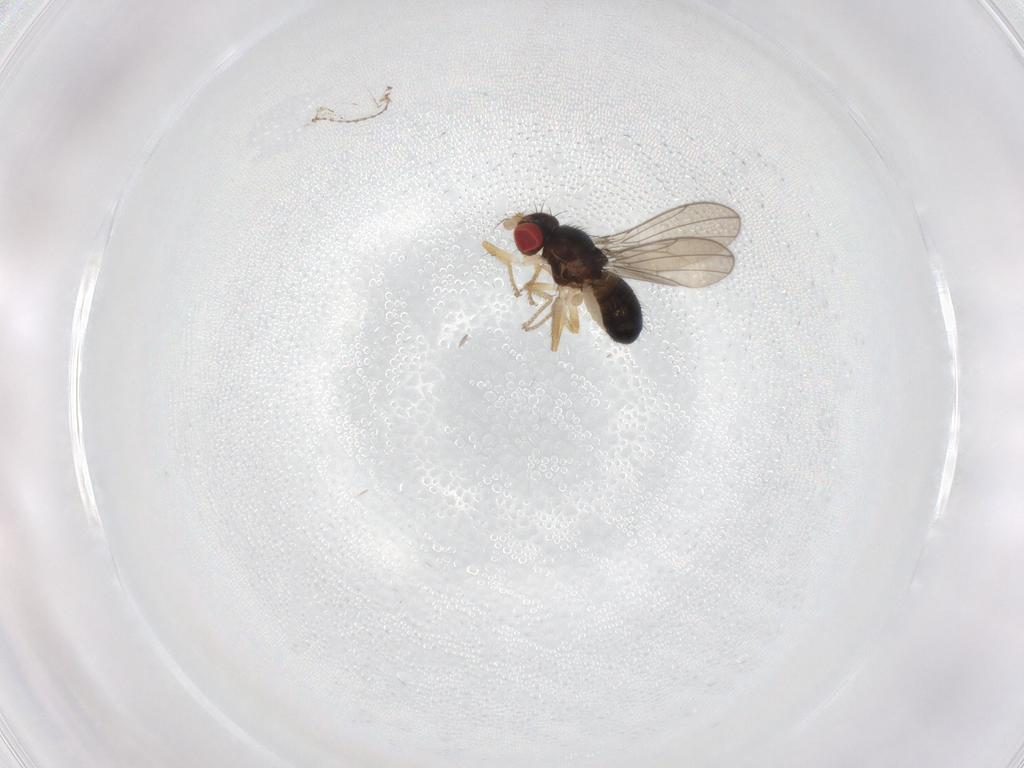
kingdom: Animalia
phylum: Arthropoda
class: Insecta
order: Diptera
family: Drosophilidae
